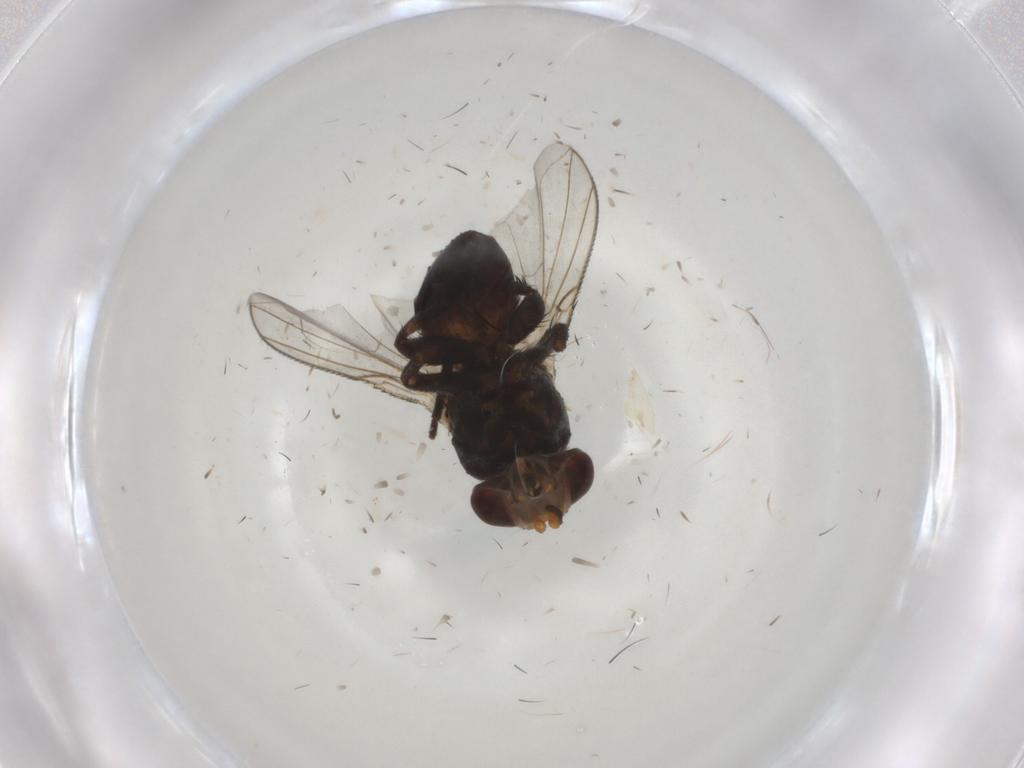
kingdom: Animalia
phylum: Arthropoda
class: Insecta
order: Diptera
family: Glossinidae
